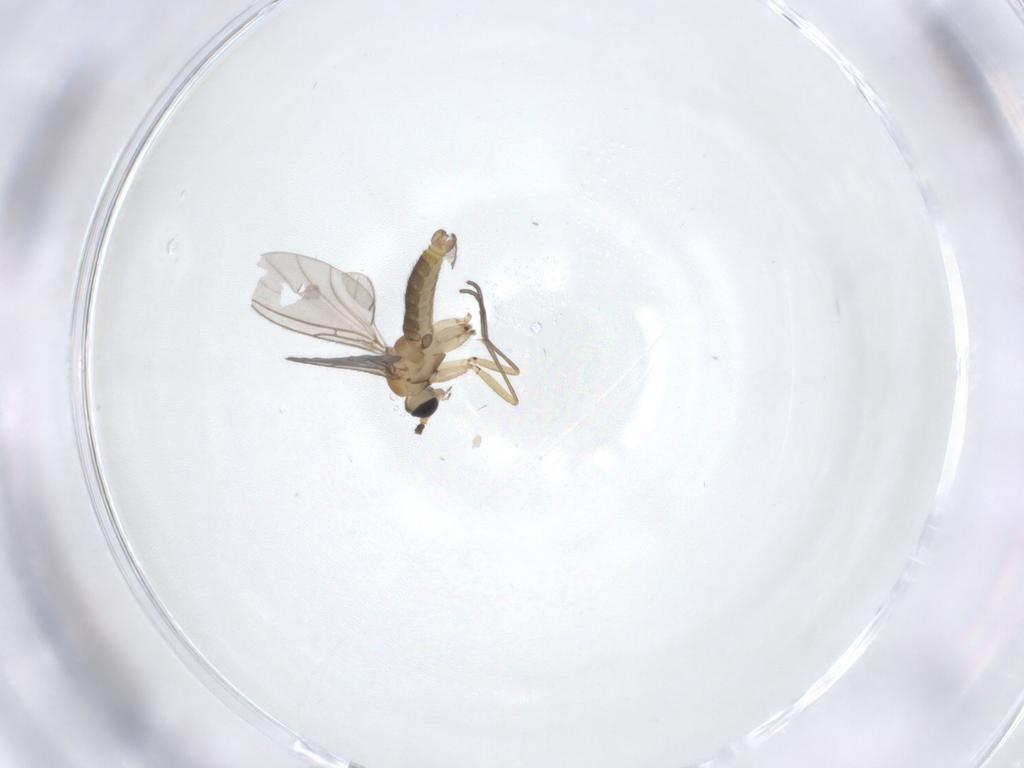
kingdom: Animalia
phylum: Arthropoda
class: Insecta
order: Diptera
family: Sciaridae
